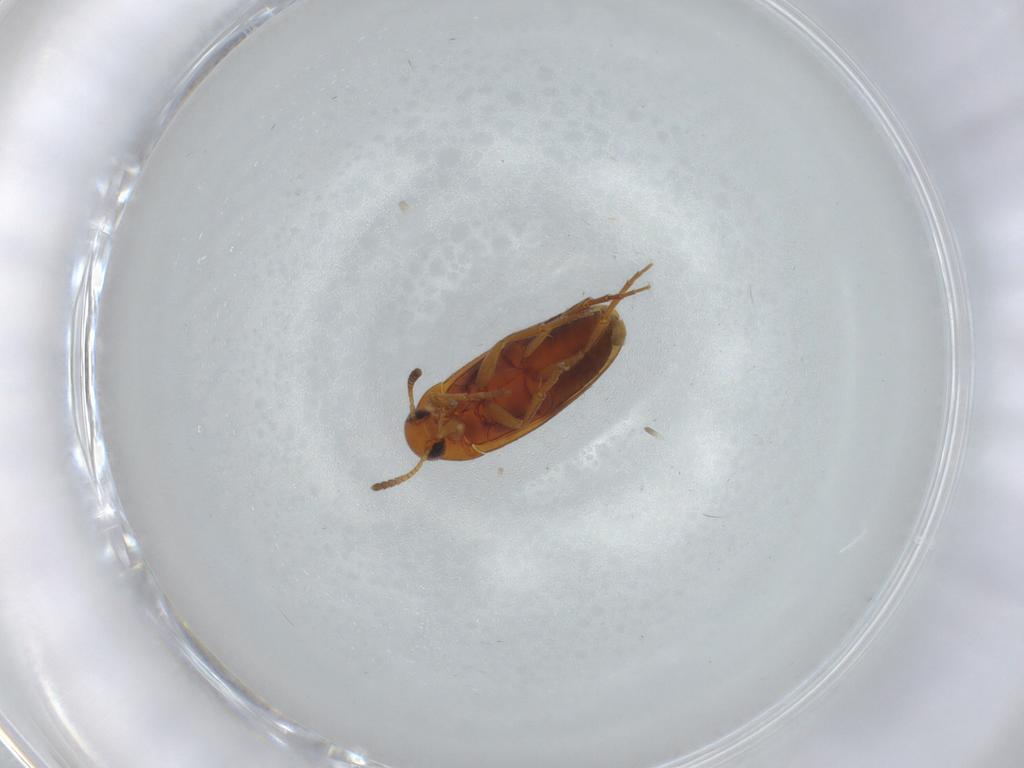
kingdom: Animalia
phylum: Arthropoda
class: Insecta
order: Coleoptera
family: Scraptiidae
